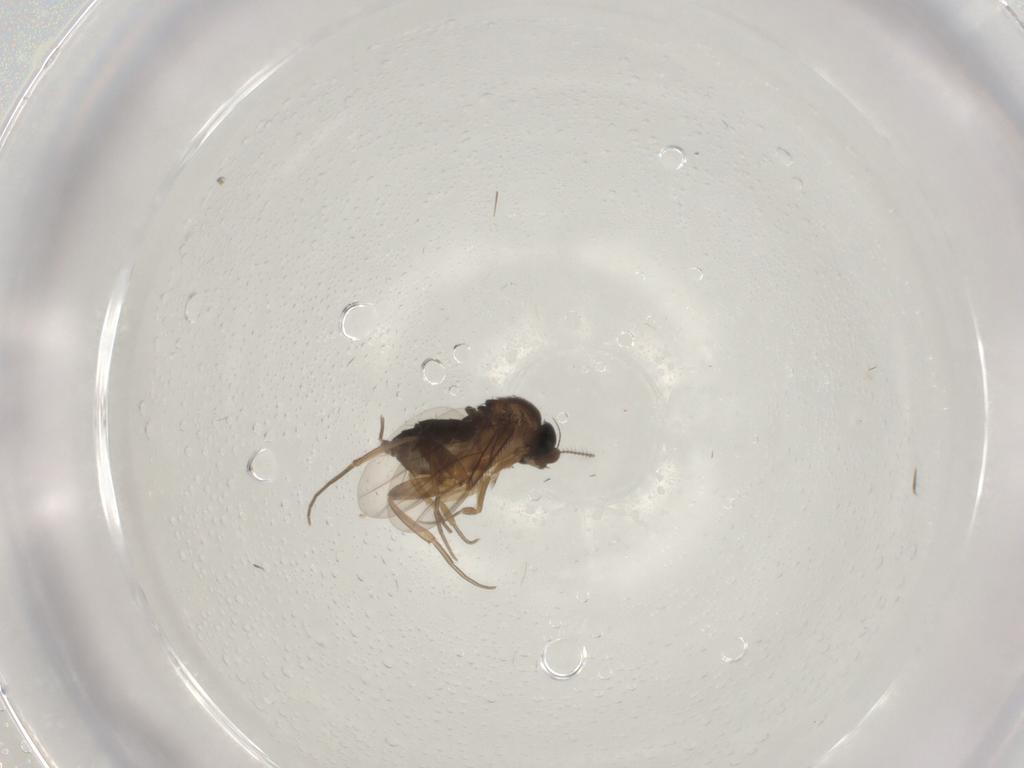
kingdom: Animalia
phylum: Arthropoda
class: Insecta
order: Diptera
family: Ceratopogonidae
